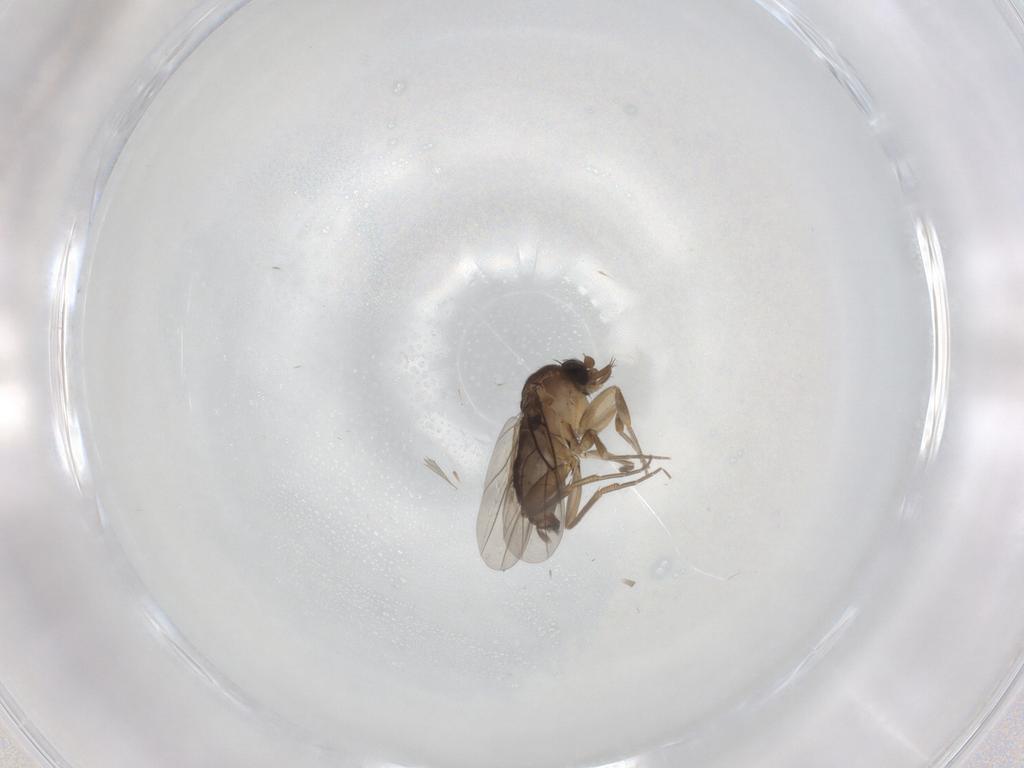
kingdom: Animalia
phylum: Arthropoda
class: Insecta
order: Diptera
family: Phoridae
